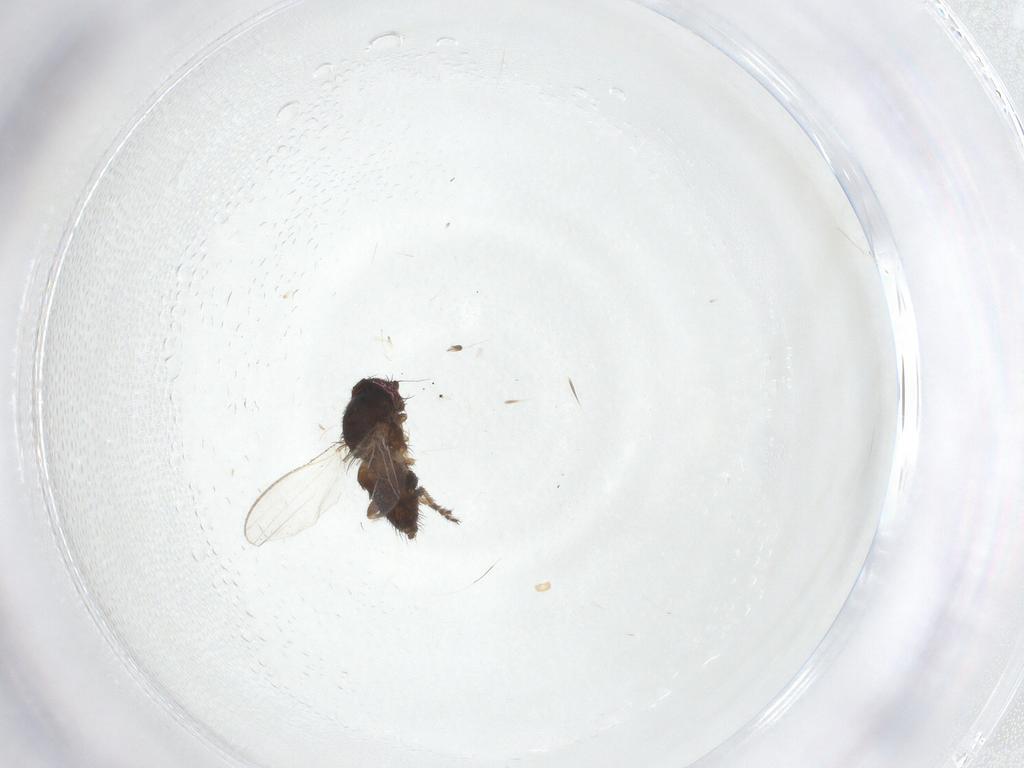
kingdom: Animalia
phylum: Arthropoda
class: Insecta
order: Diptera
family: Milichiidae
